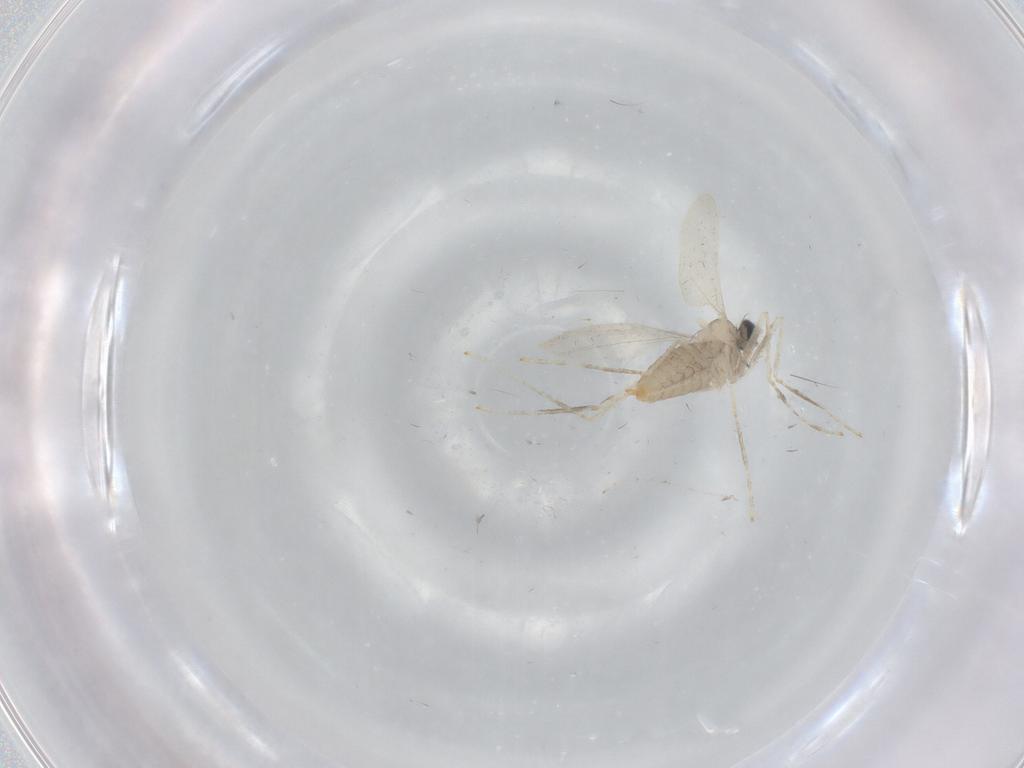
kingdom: Animalia
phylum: Arthropoda
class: Insecta
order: Diptera
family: Cecidomyiidae
